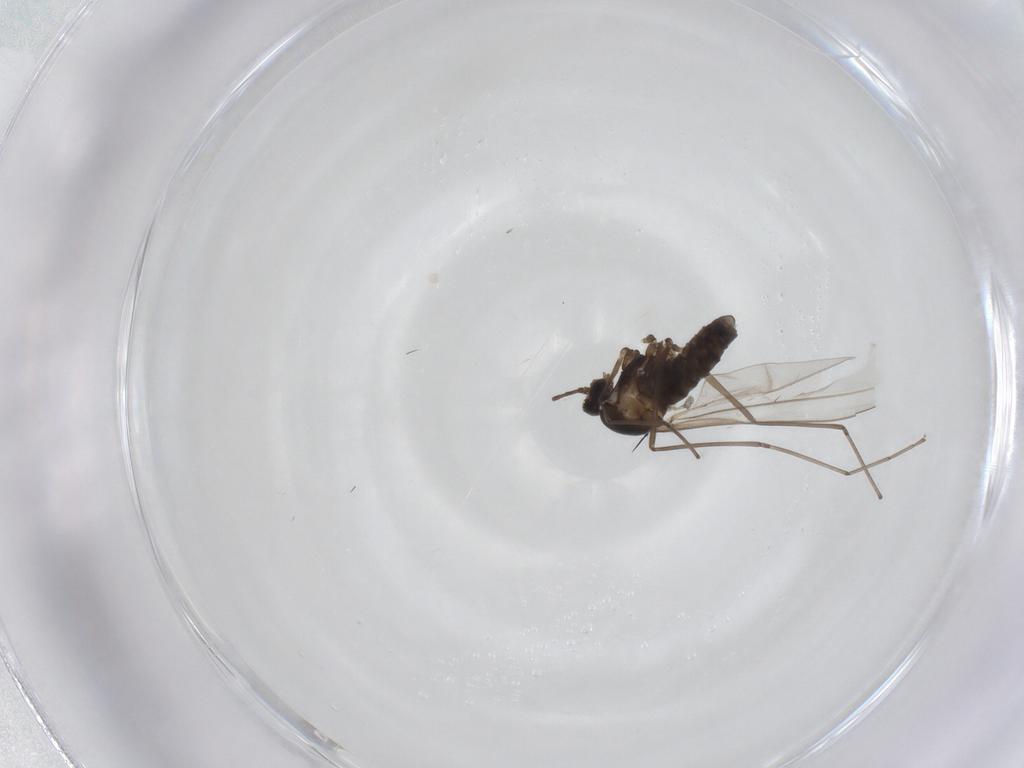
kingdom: Animalia
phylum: Arthropoda
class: Insecta
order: Diptera
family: Cecidomyiidae
